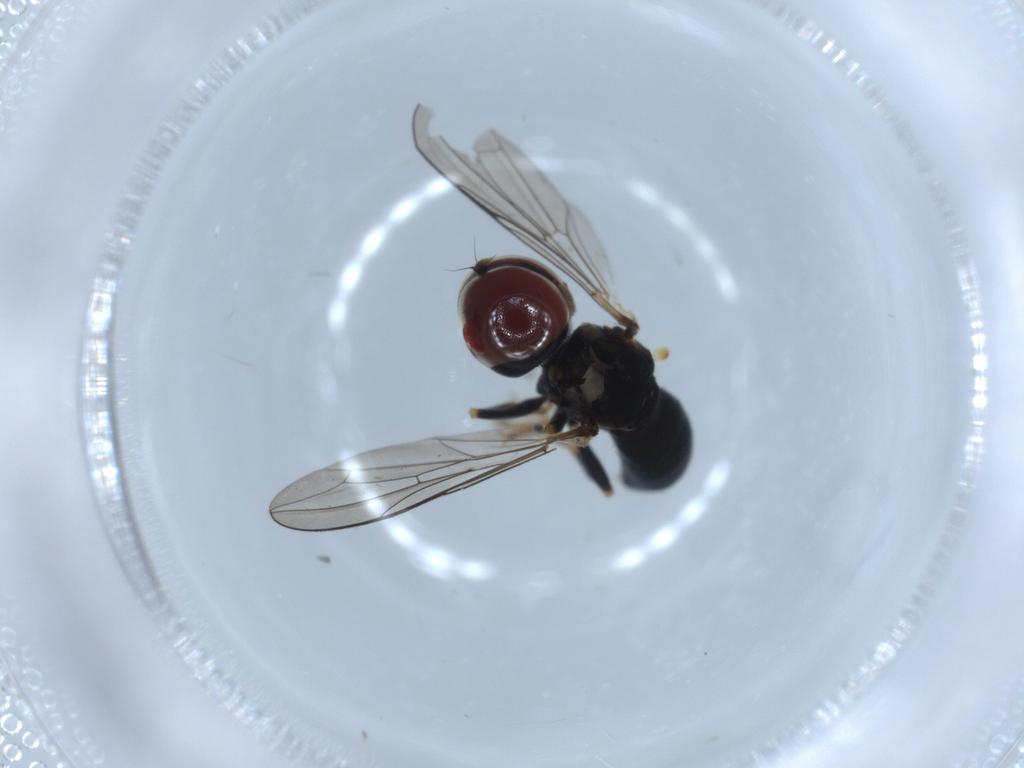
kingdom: Animalia
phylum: Arthropoda
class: Insecta
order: Diptera
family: Pipunculidae
